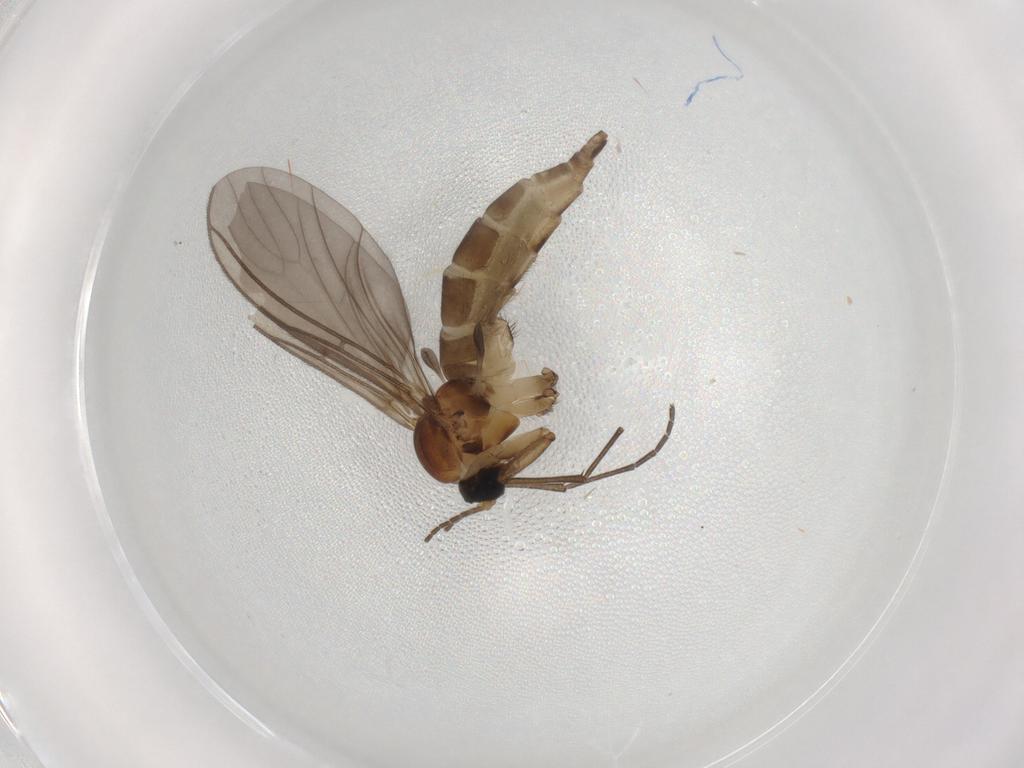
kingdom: Animalia
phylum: Arthropoda
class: Insecta
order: Diptera
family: Sciaridae
